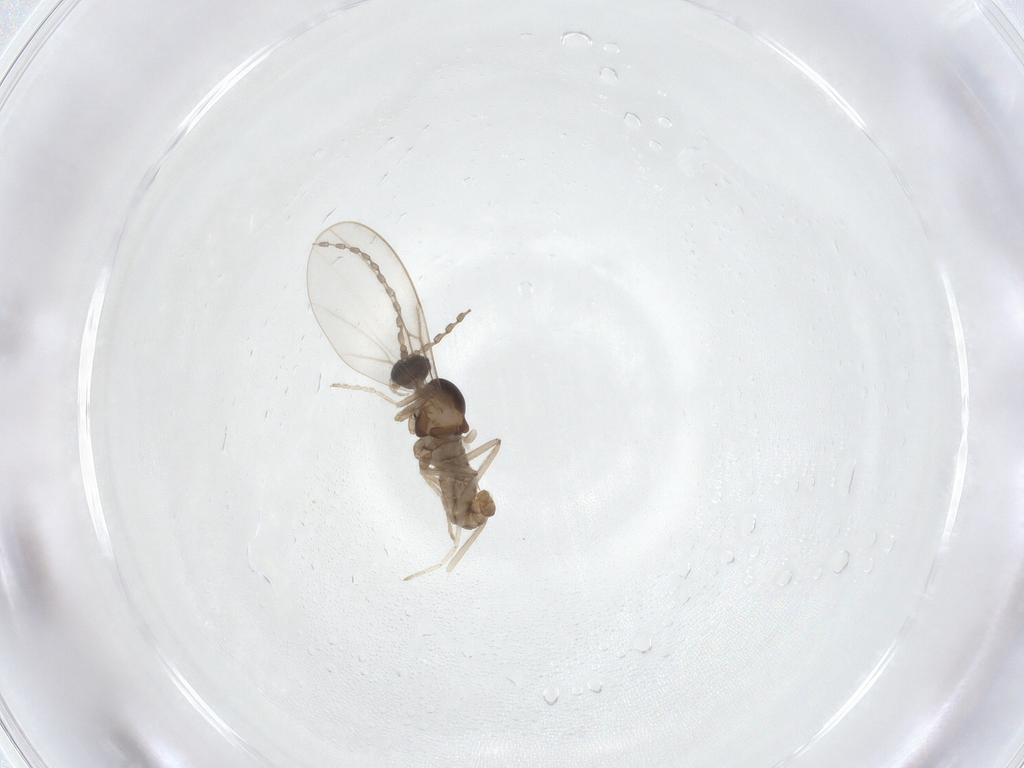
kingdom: Animalia
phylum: Arthropoda
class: Insecta
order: Diptera
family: Cecidomyiidae
